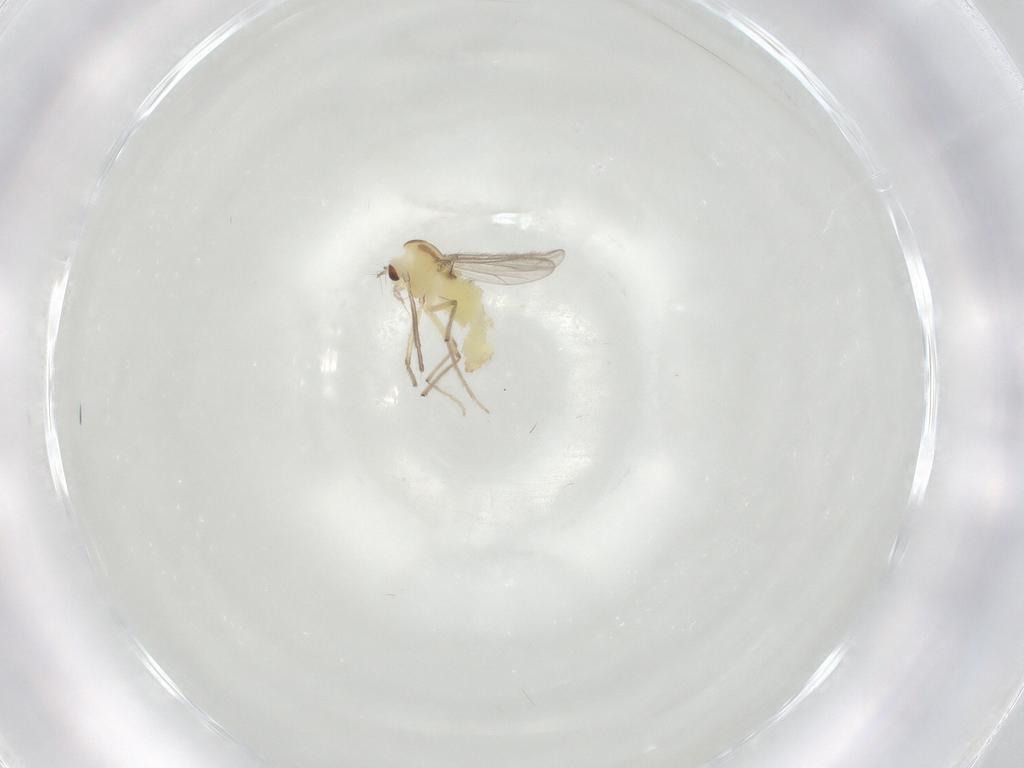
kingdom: Animalia
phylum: Arthropoda
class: Insecta
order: Diptera
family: Chironomidae
